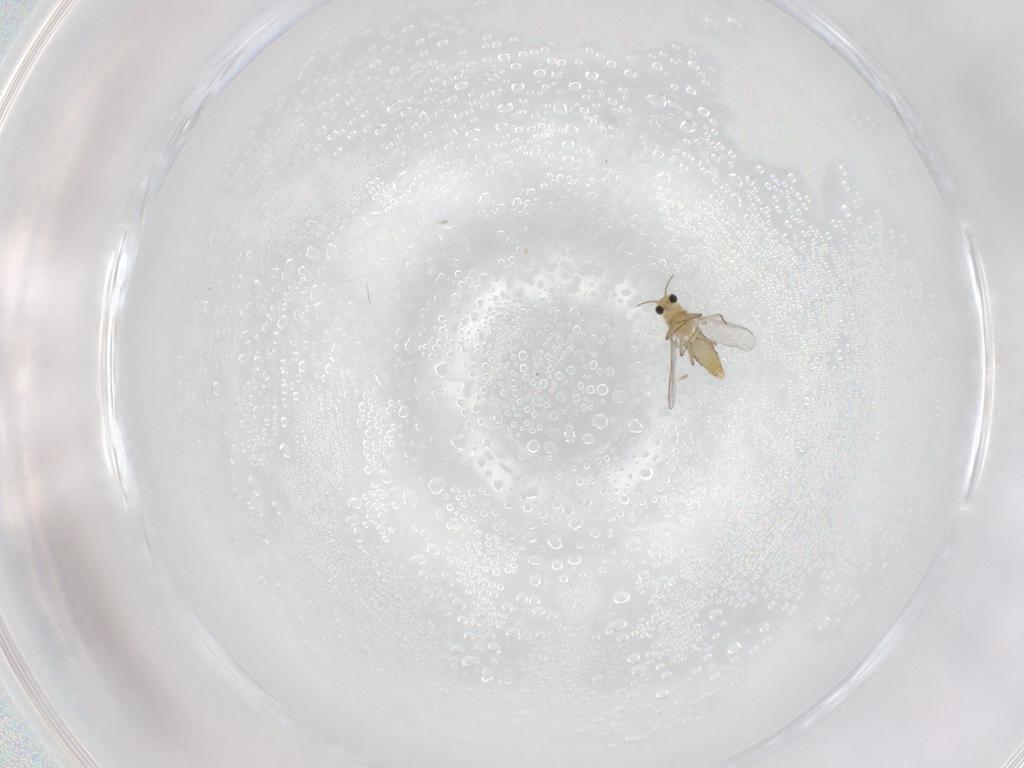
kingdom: Animalia
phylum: Arthropoda
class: Insecta
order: Diptera
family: Chironomidae
